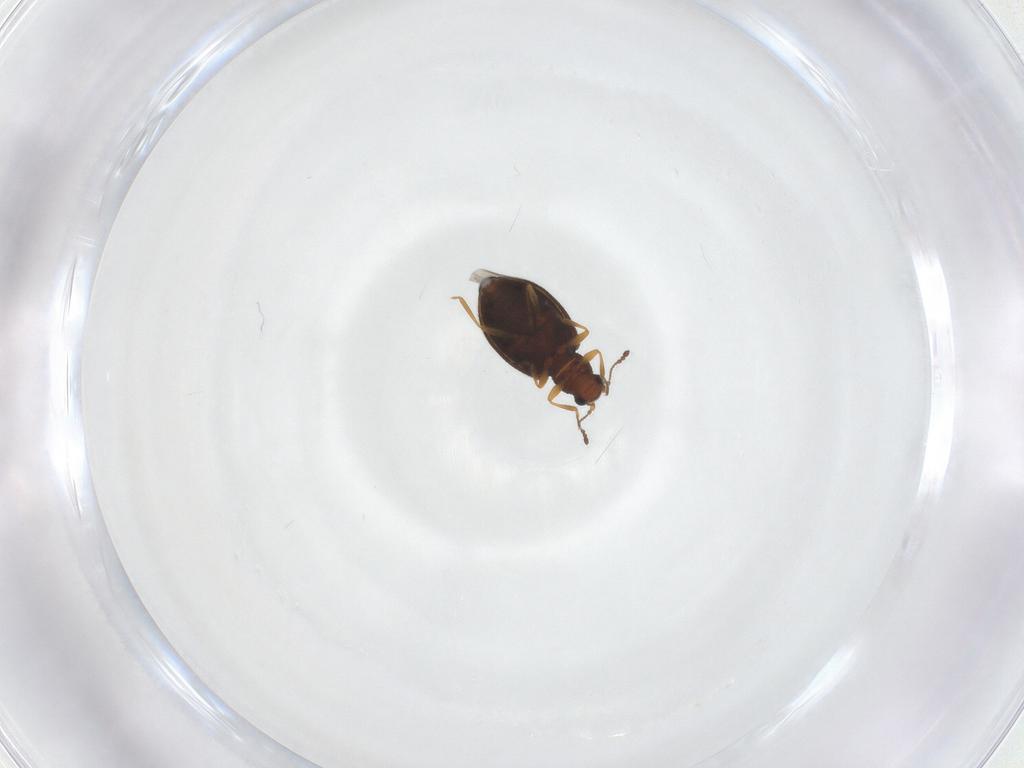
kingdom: Animalia
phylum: Arthropoda
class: Insecta
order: Coleoptera
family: Latridiidae
